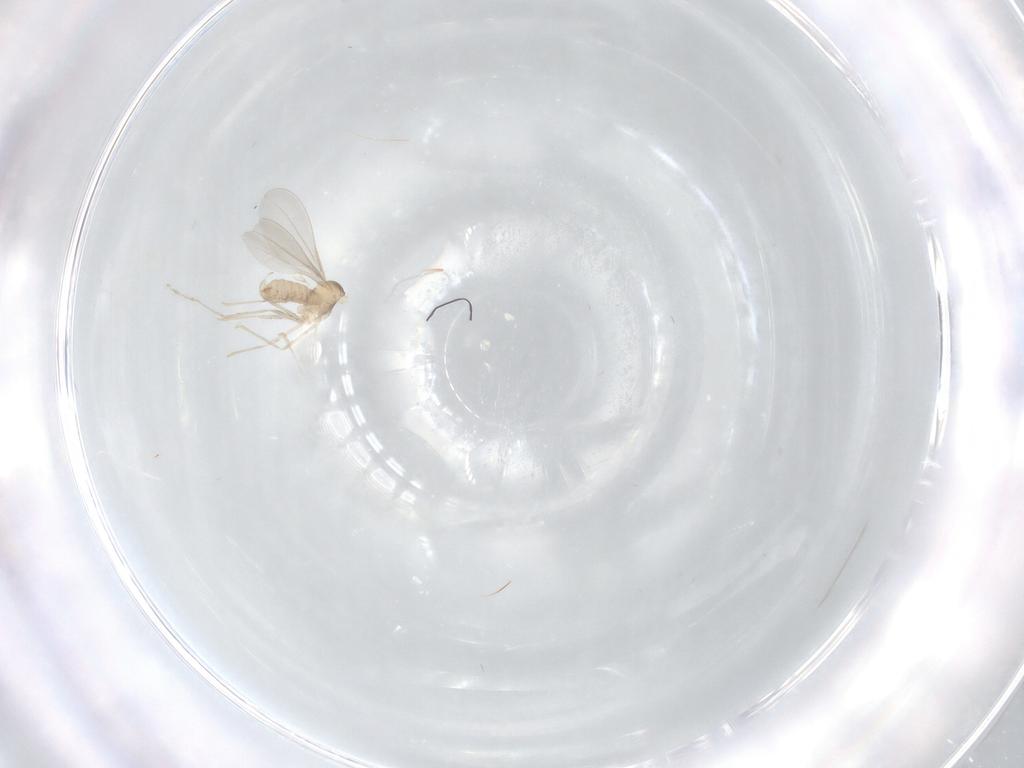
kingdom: Animalia
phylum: Arthropoda
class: Insecta
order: Diptera
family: Cecidomyiidae
